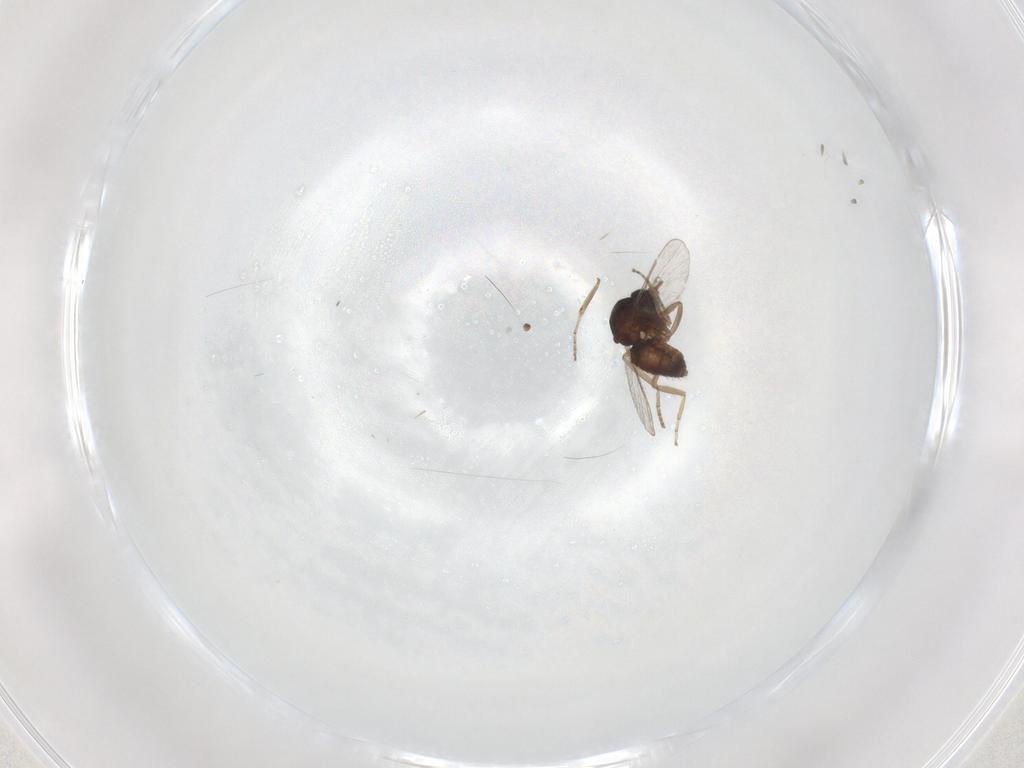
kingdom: Animalia
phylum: Arthropoda
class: Insecta
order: Diptera
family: Ceratopogonidae
